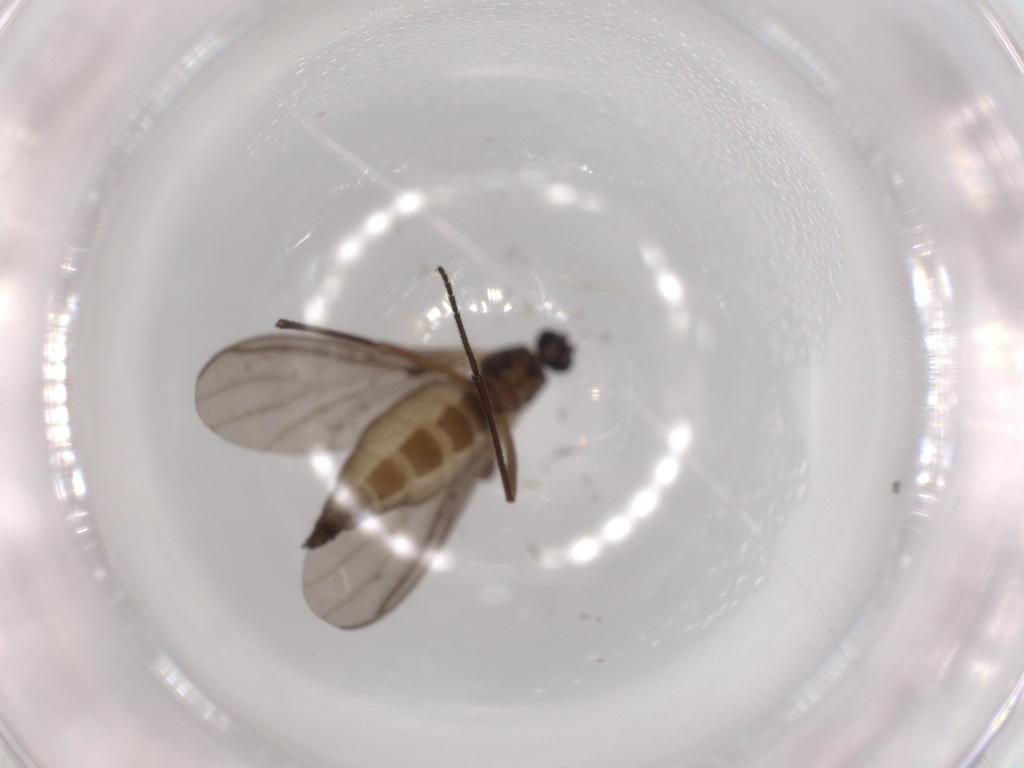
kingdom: Animalia
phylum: Arthropoda
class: Insecta
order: Diptera
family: Sciaridae
